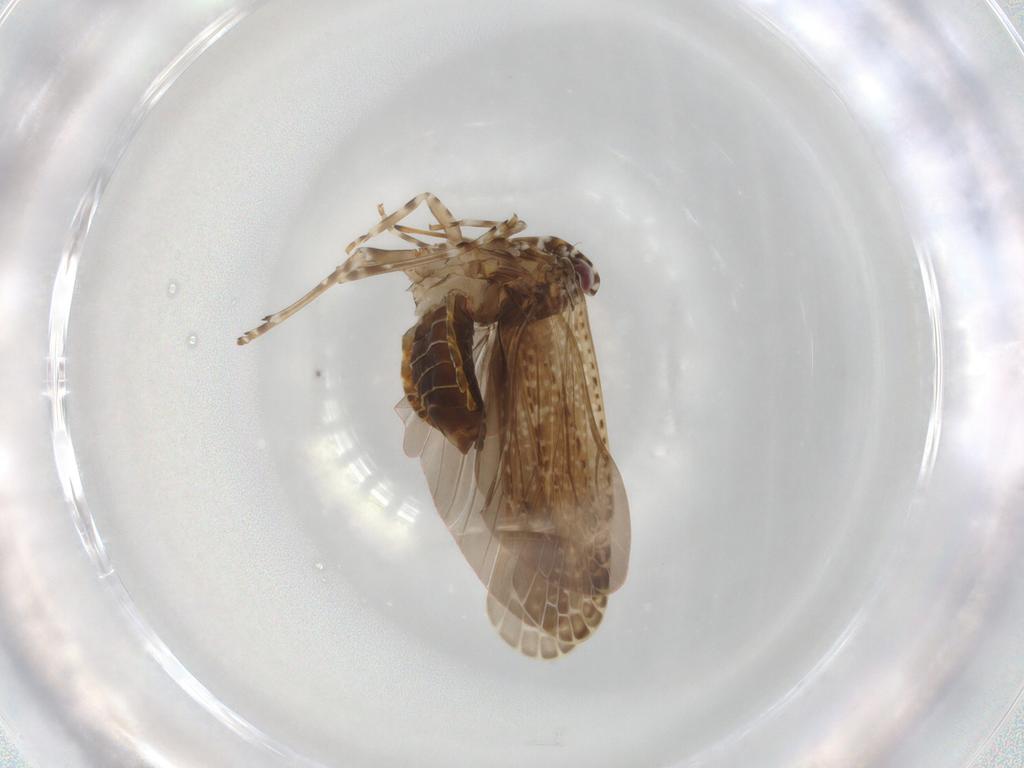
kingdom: Animalia
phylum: Arthropoda
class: Insecta
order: Hemiptera
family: Achilidae
